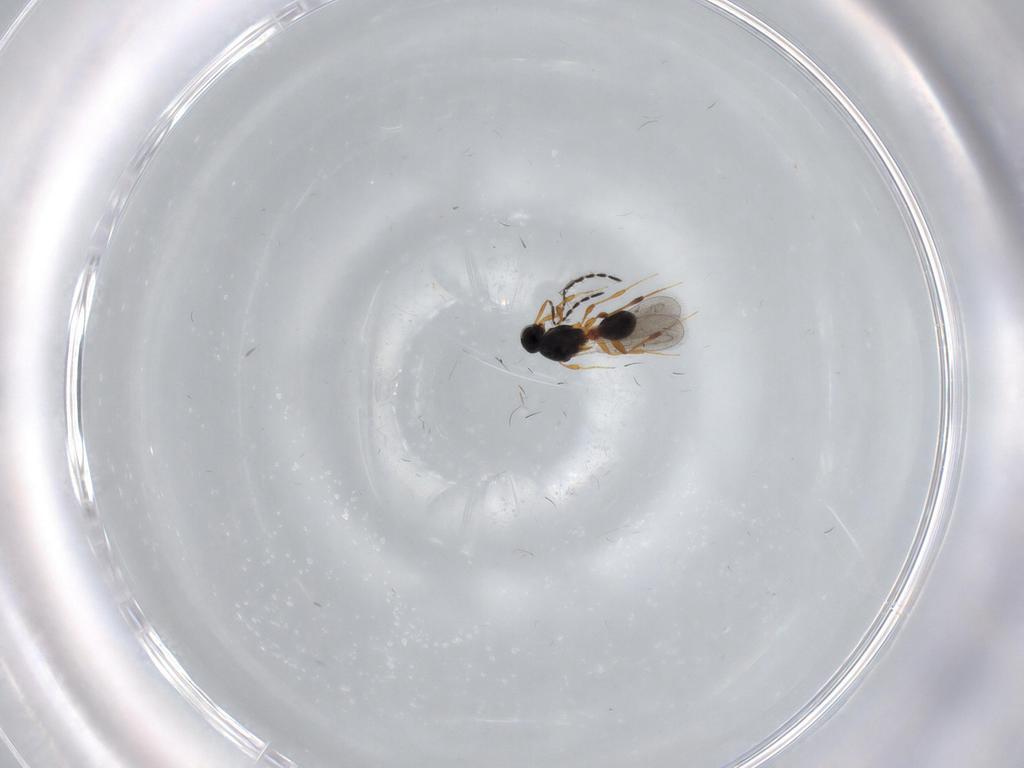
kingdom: Animalia
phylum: Arthropoda
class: Insecta
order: Hymenoptera
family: Platygastridae
